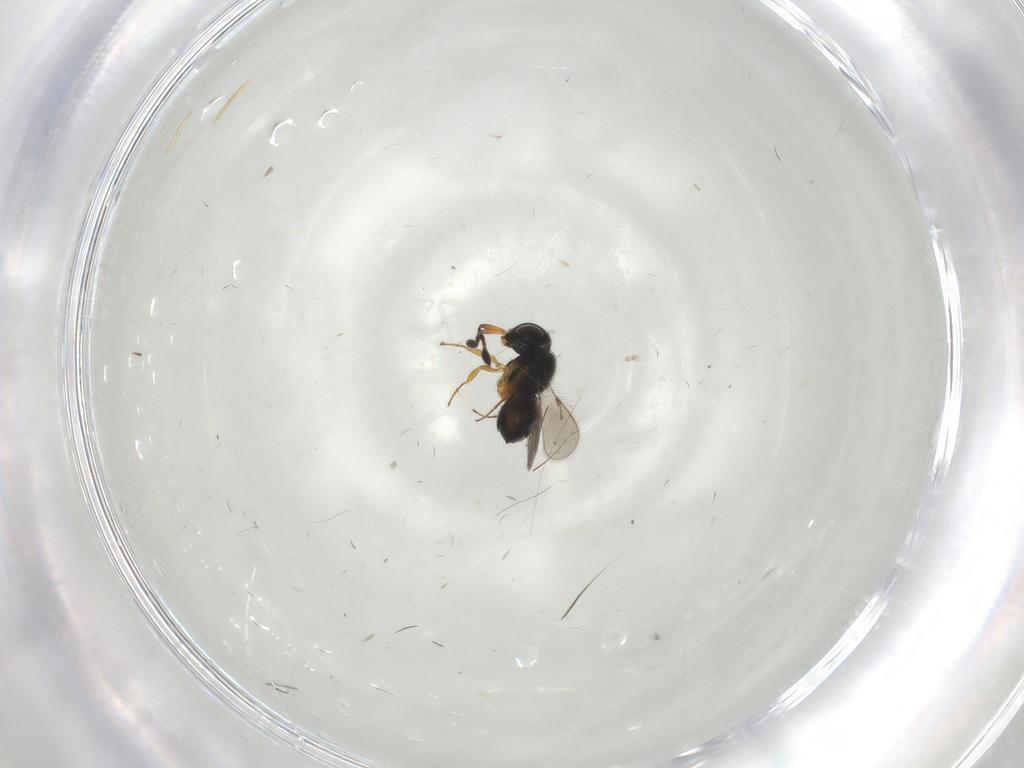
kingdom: Animalia
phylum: Arthropoda
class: Insecta
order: Hymenoptera
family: Scelionidae
